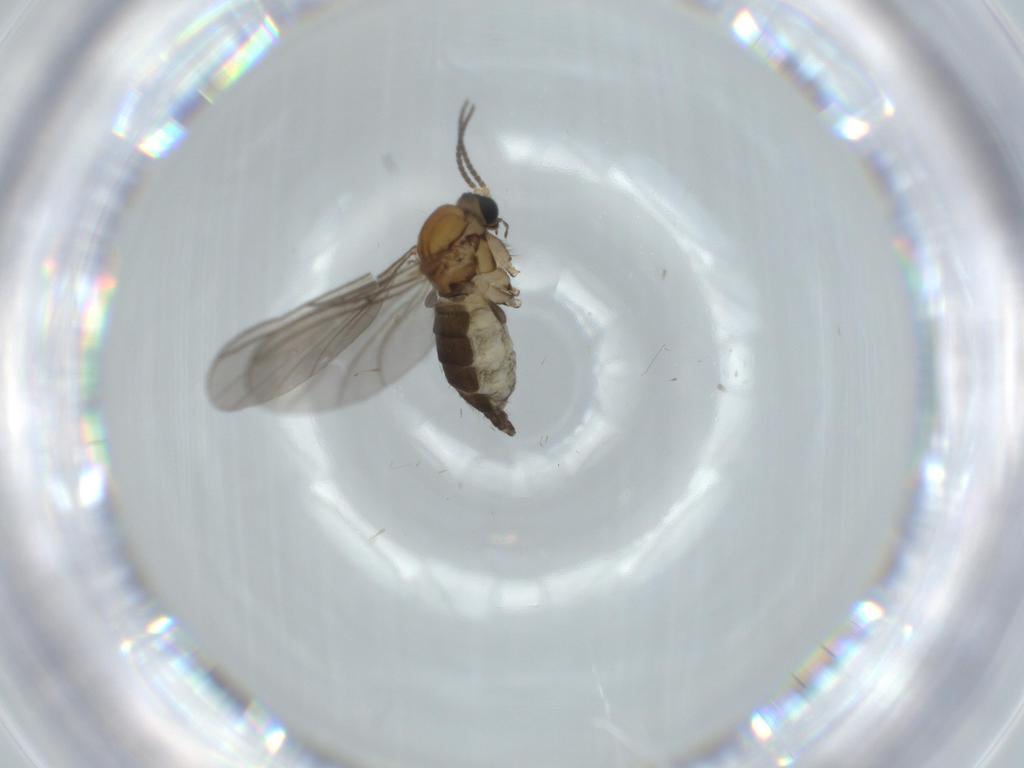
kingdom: Animalia
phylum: Arthropoda
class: Insecta
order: Diptera
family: Sciaridae
